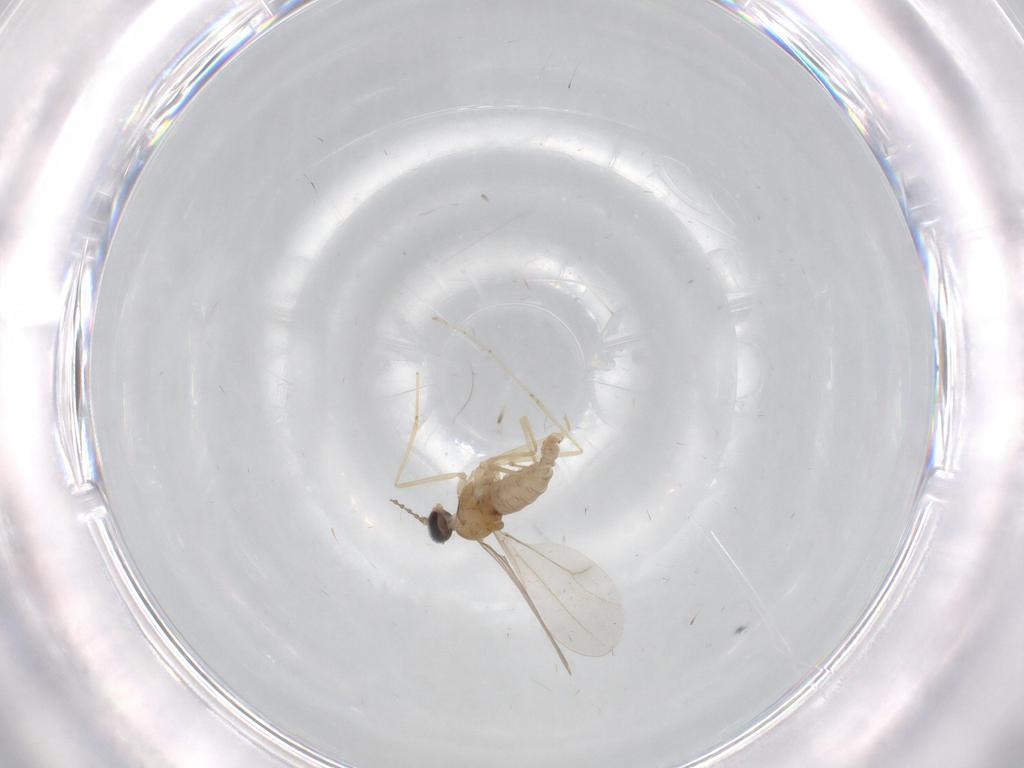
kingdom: Animalia
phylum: Arthropoda
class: Insecta
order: Diptera
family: Cecidomyiidae
